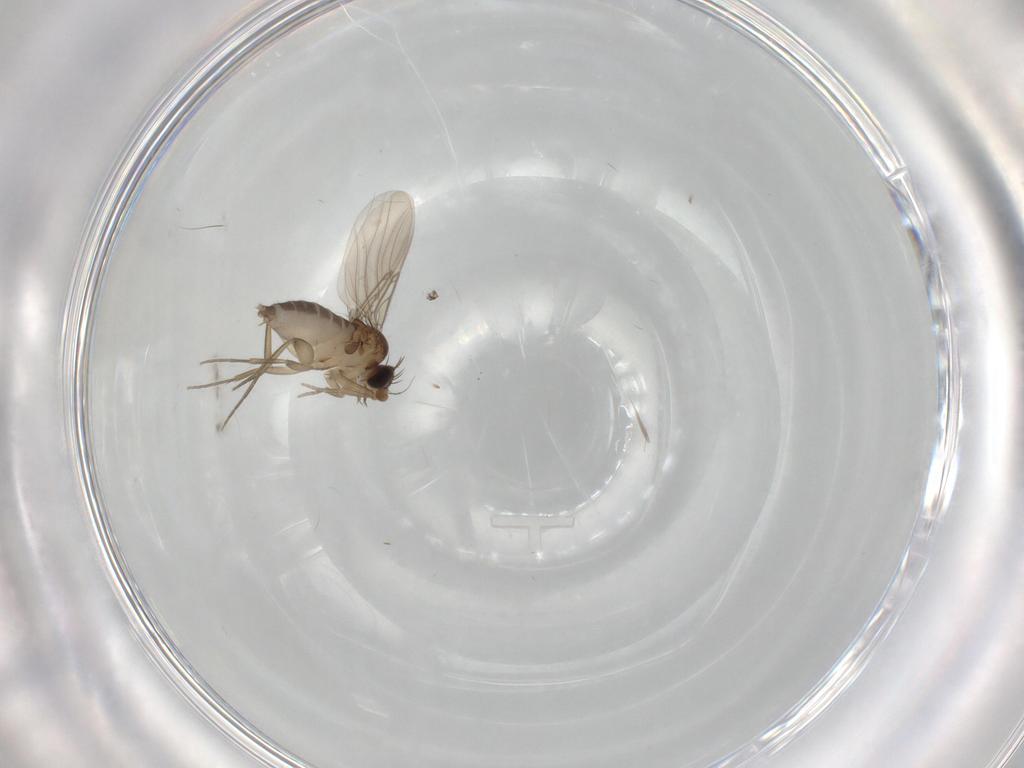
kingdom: Animalia
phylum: Arthropoda
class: Insecta
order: Diptera
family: Phoridae
